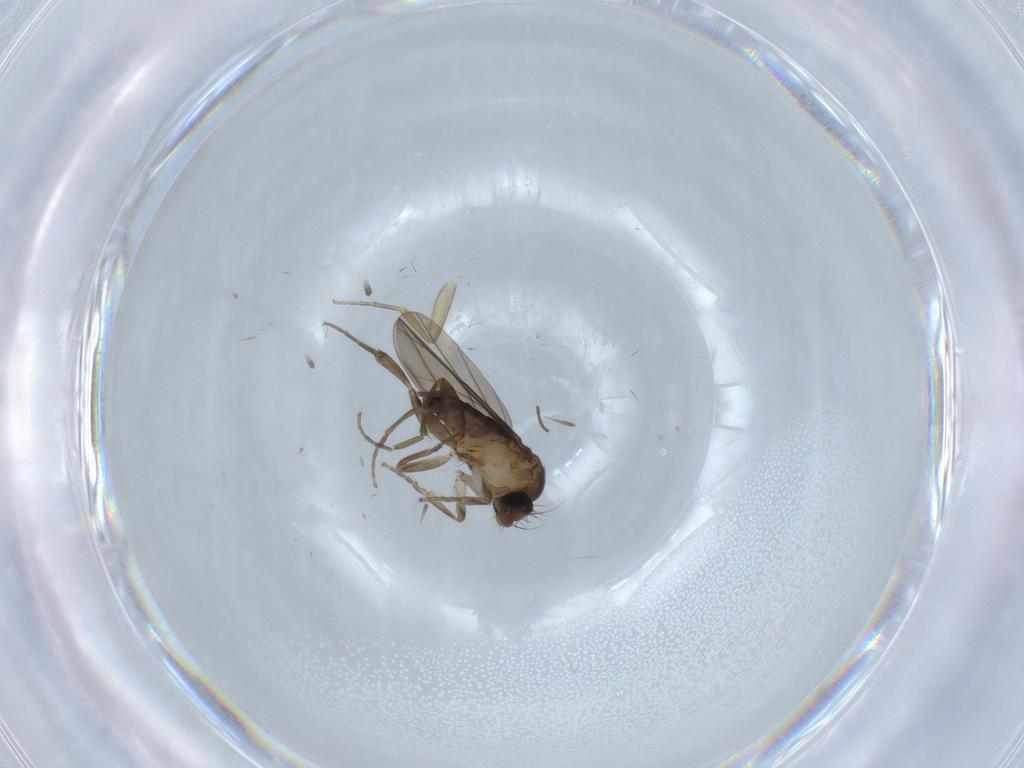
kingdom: Animalia
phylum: Arthropoda
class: Insecta
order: Diptera
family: Sciaridae
